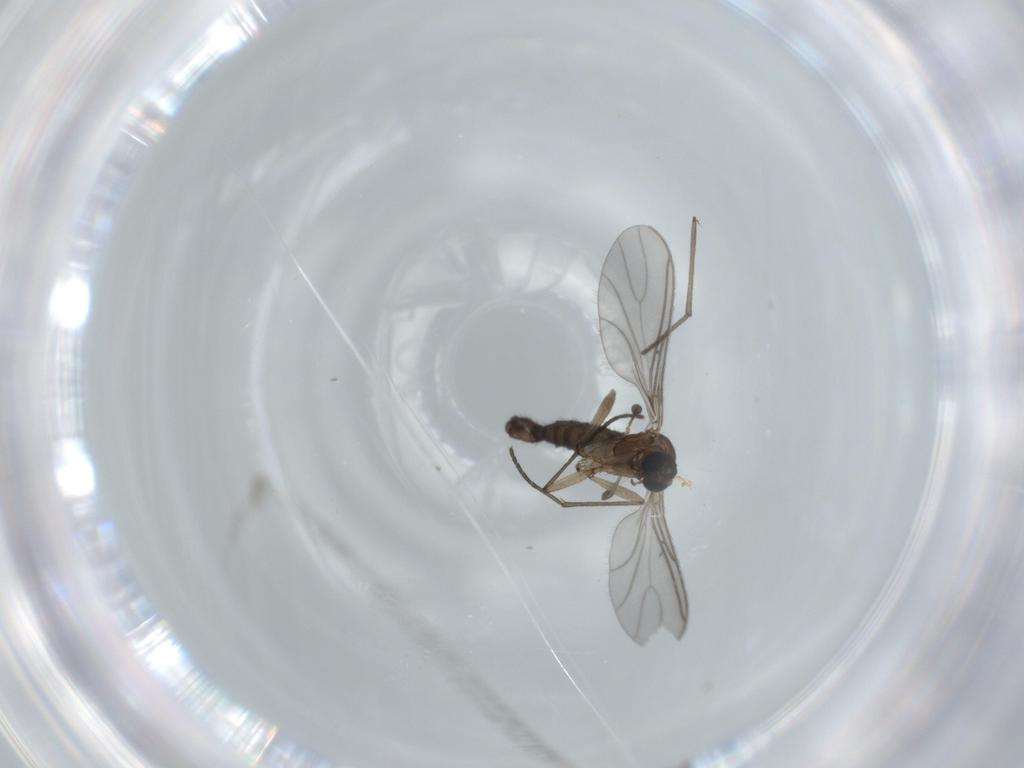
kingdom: Animalia
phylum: Arthropoda
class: Insecta
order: Diptera
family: Sciaridae
